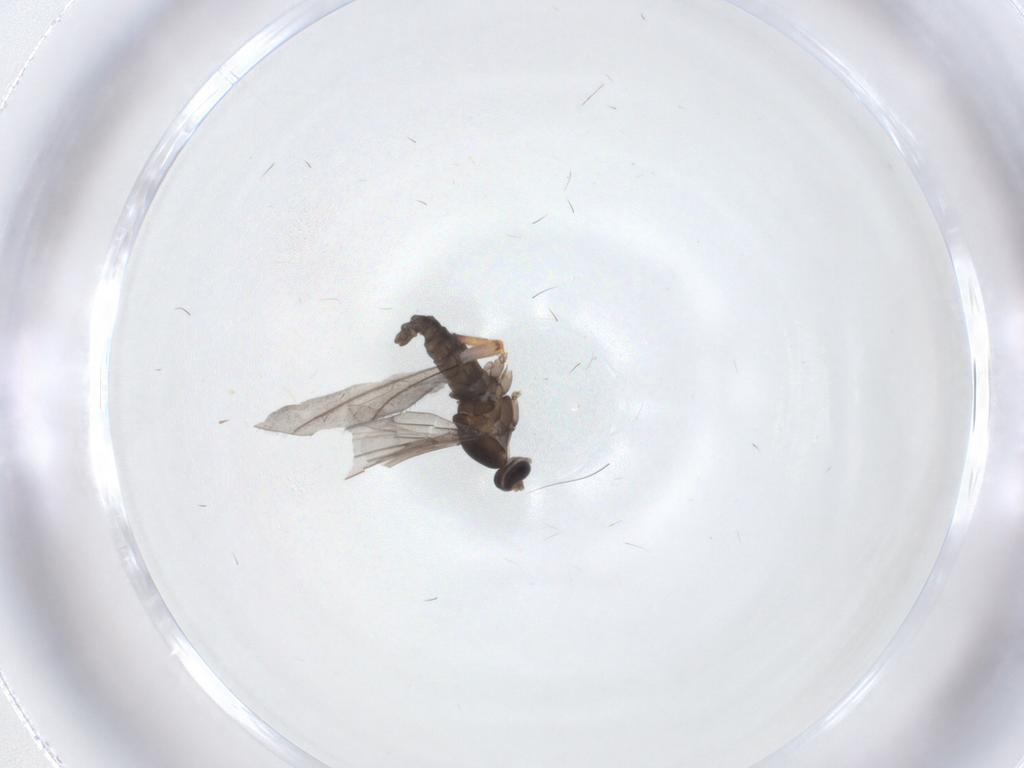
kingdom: Animalia
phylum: Arthropoda
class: Insecta
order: Diptera
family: Cecidomyiidae
